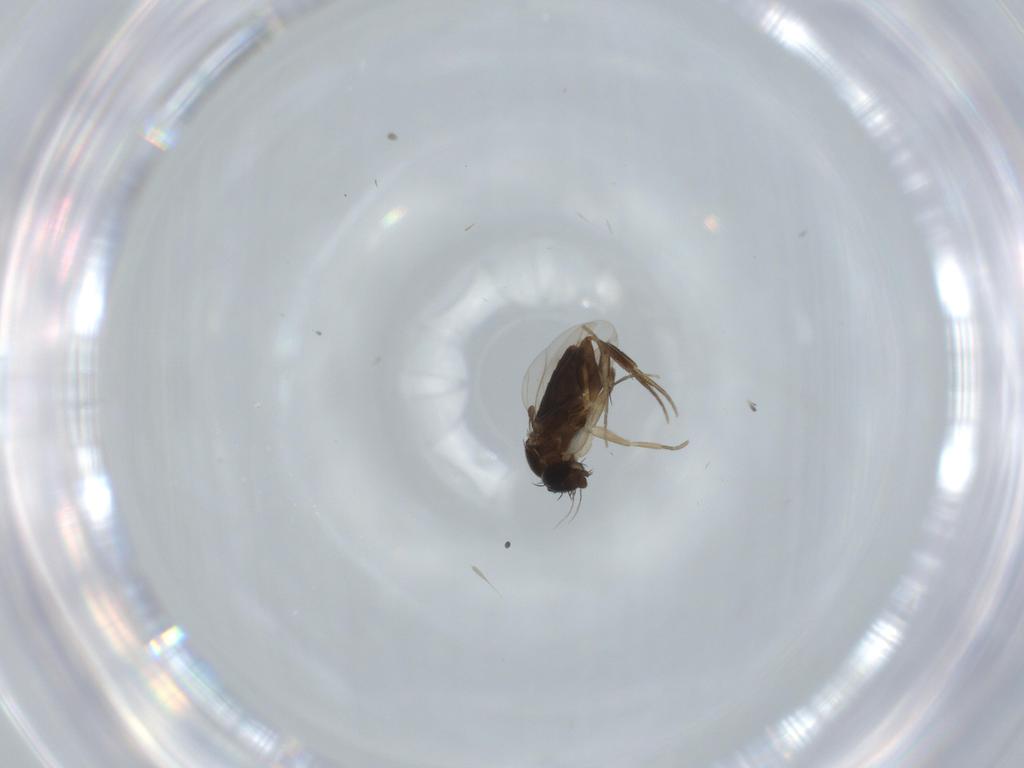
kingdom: Animalia
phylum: Arthropoda
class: Insecta
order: Diptera
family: Phoridae
